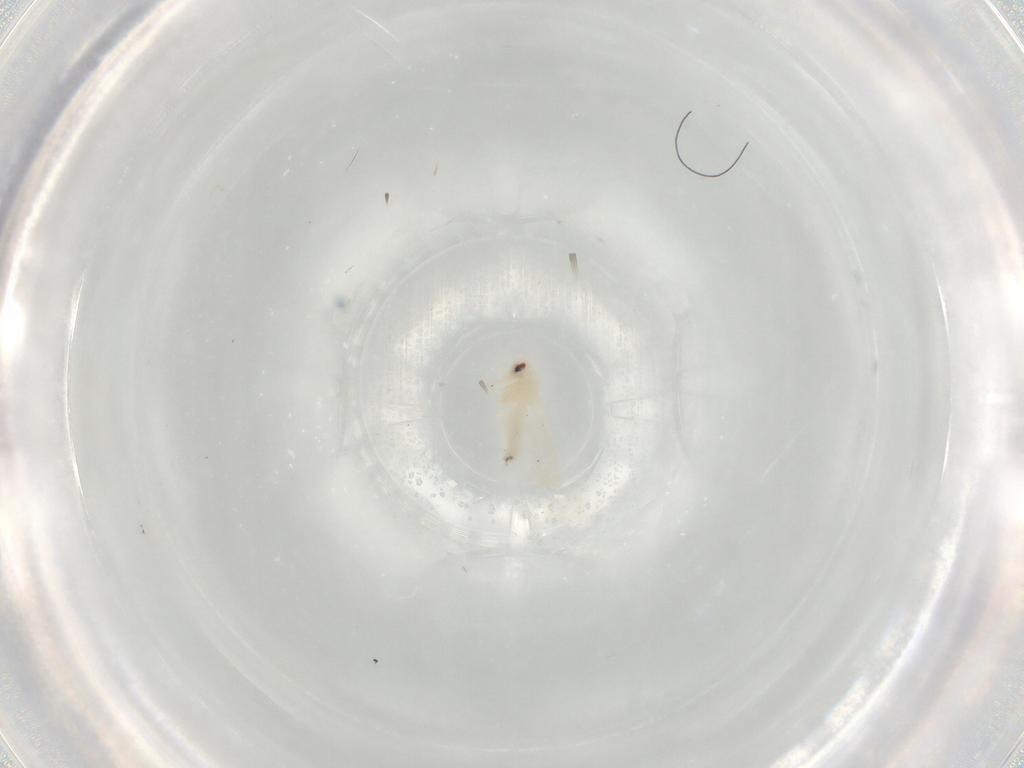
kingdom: Animalia
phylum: Arthropoda
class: Insecta
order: Hemiptera
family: Aleyrodidae
